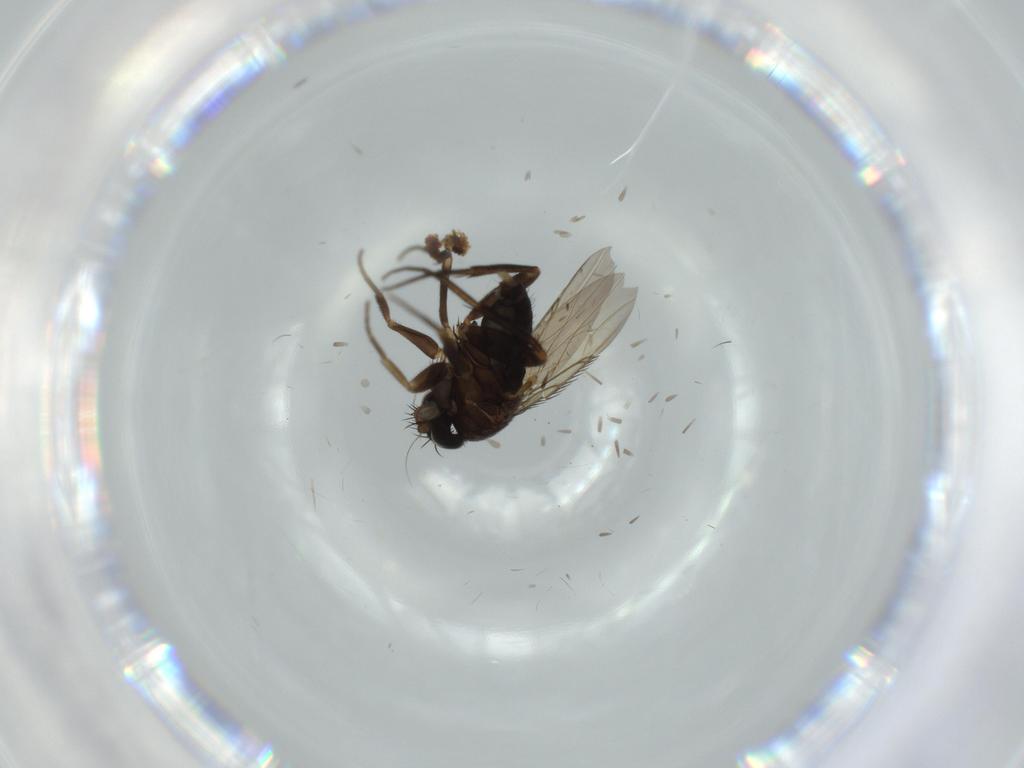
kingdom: Animalia
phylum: Arthropoda
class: Insecta
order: Diptera
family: Phoridae
